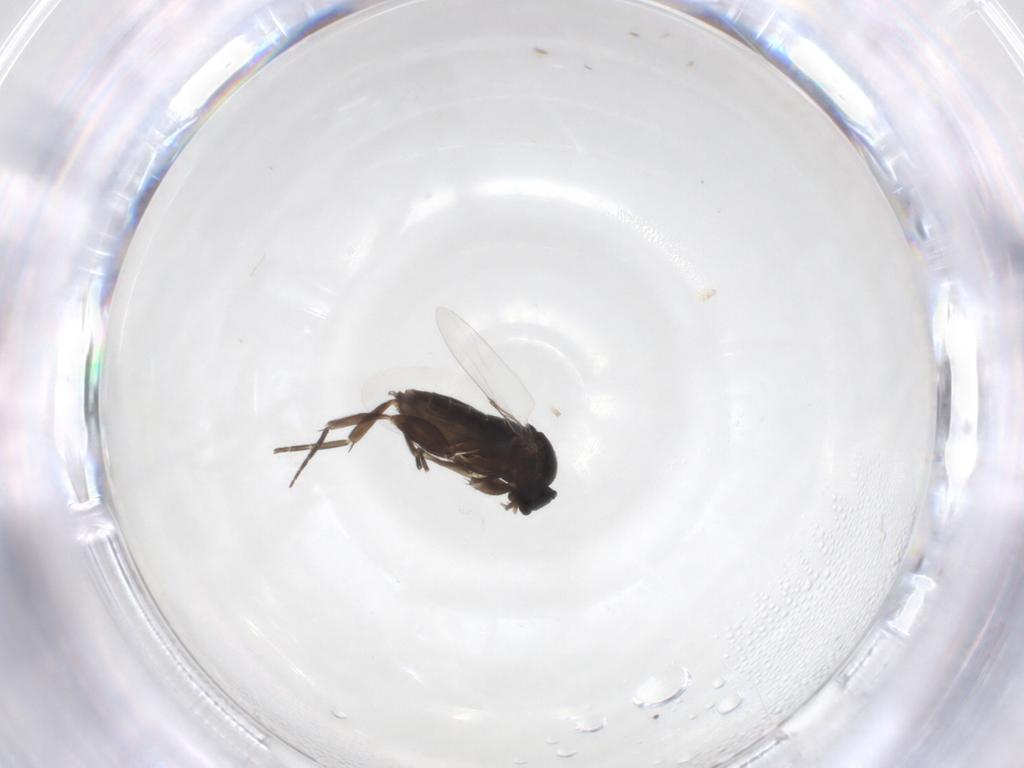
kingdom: Animalia
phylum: Arthropoda
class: Insecta
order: Diptera
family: Phoridae
